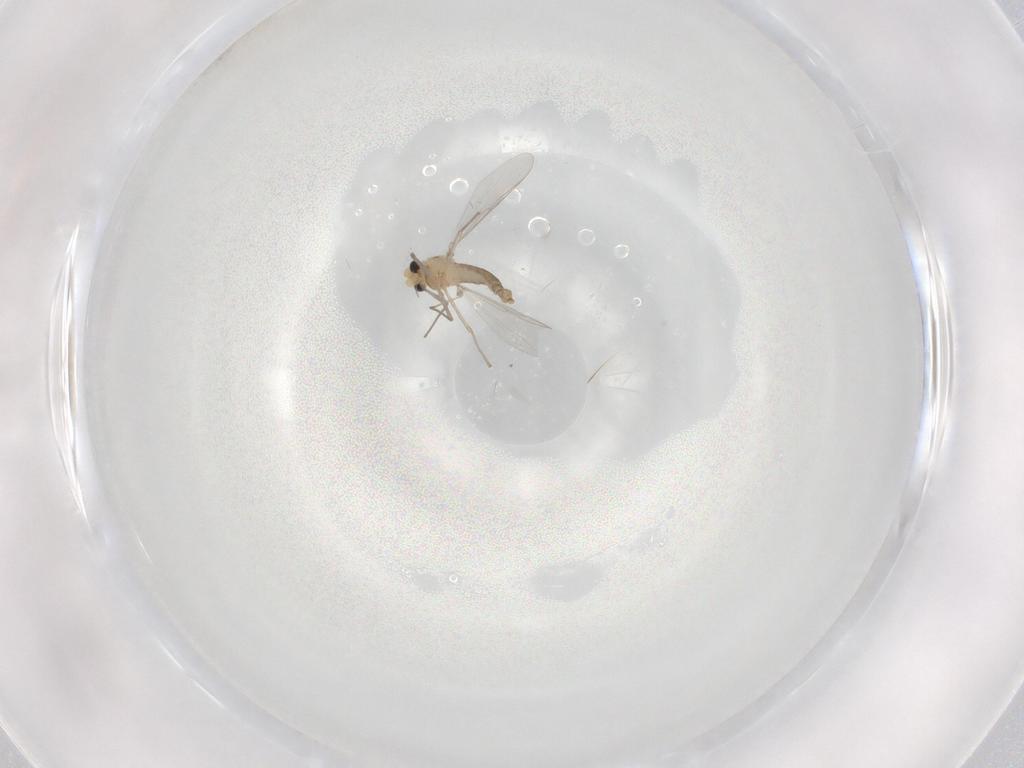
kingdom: Animalia
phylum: Arthropoda
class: Insecta
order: Diptera
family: Chironomidae
